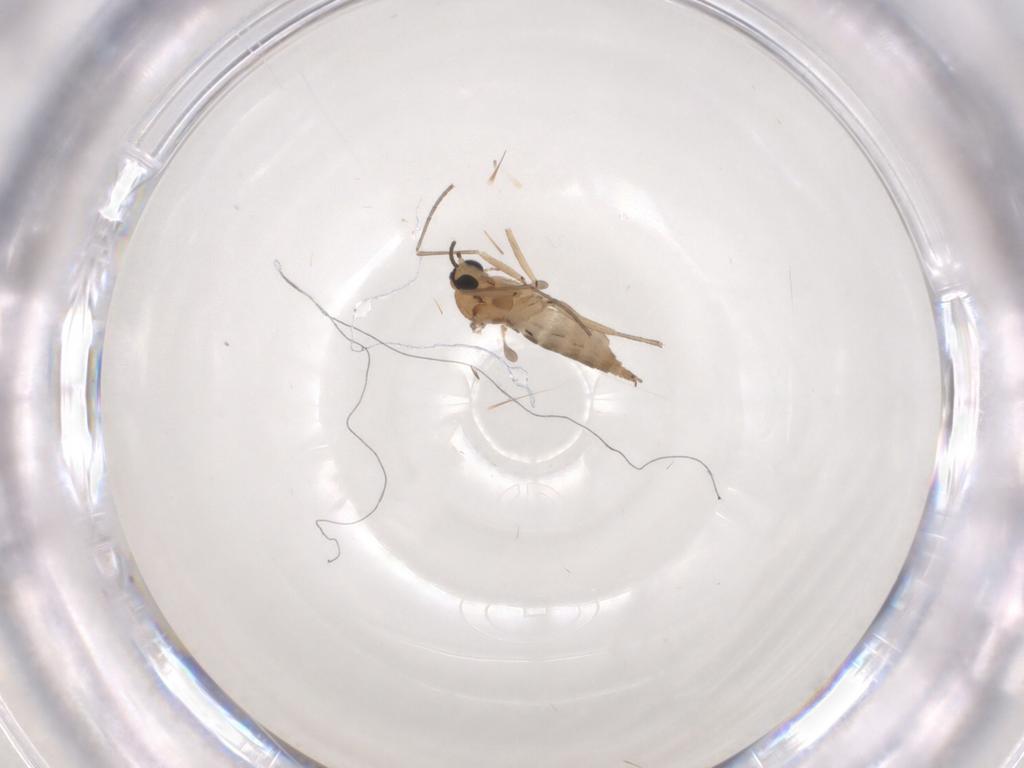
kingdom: Animalia
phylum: Arthropoda
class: Insecta
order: Diptera
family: Sciaridae
